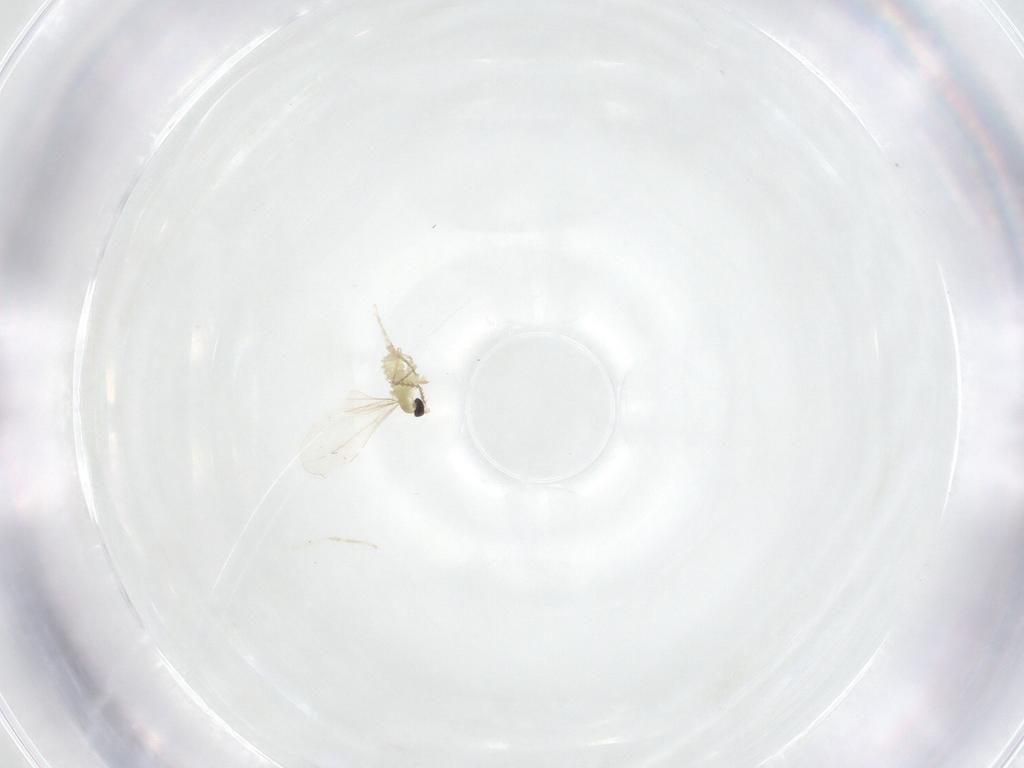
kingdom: Animalia
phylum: Arthropoda
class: Insecta
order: Diptera
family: Cecidomyiidae
